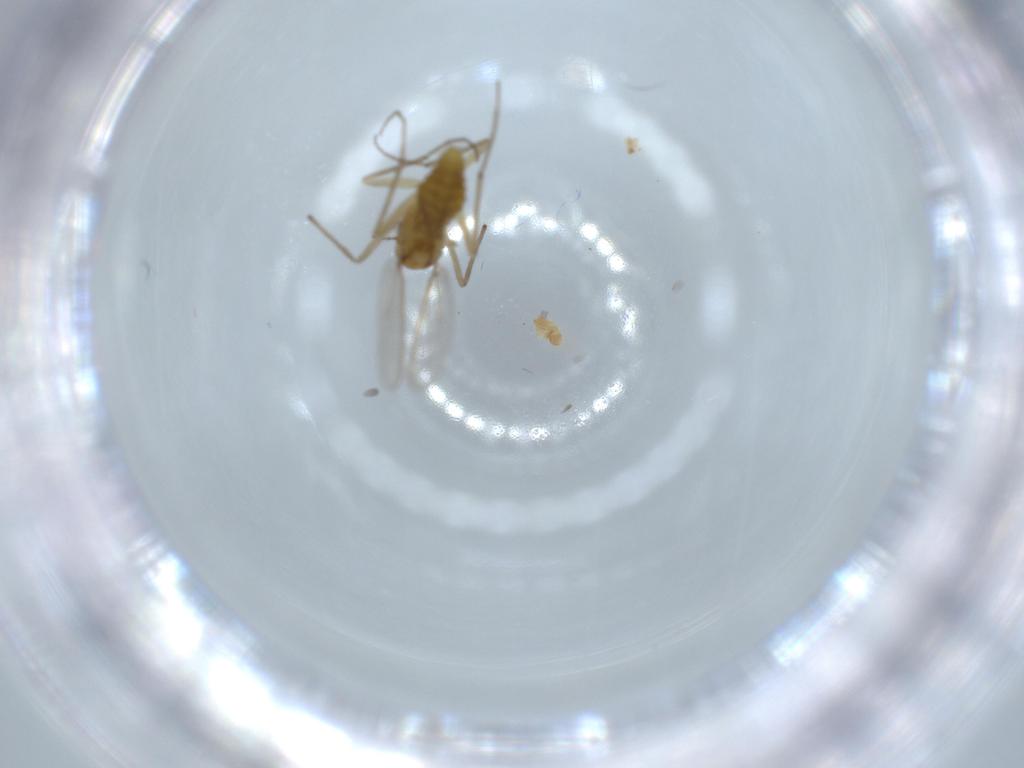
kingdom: Animalia
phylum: Arthropoda
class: Insecta
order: Diptera
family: Chironomidae
